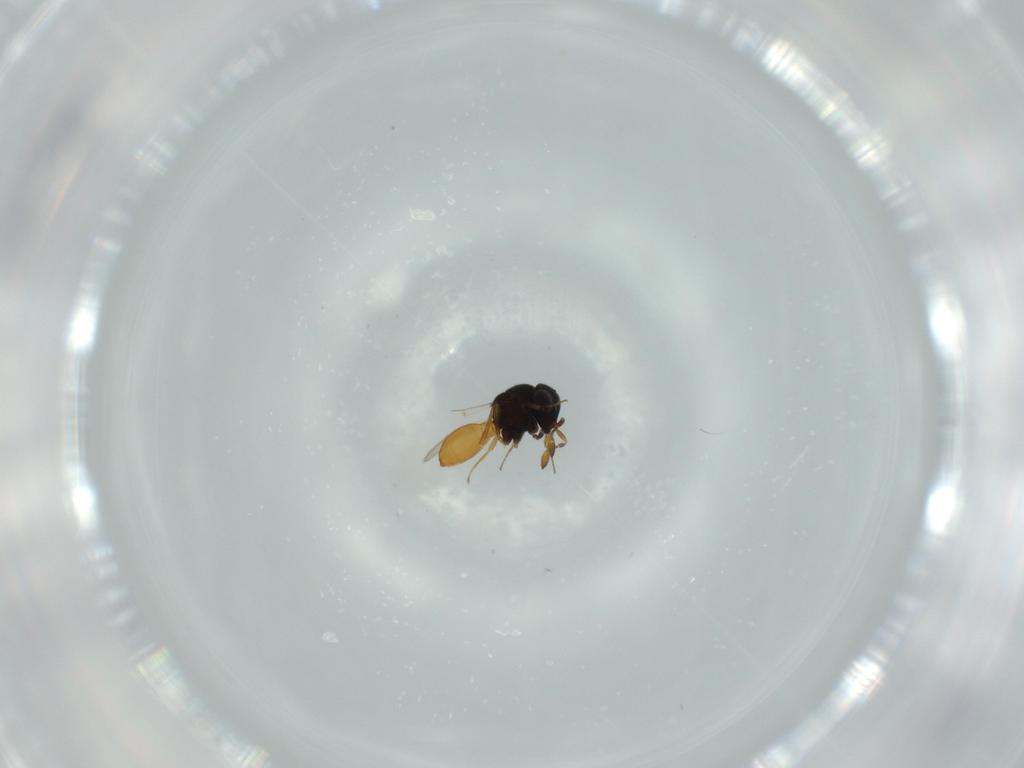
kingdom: Animalia
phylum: Arthropoda
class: Insecta
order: Hymenoptera
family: Scelionidae
